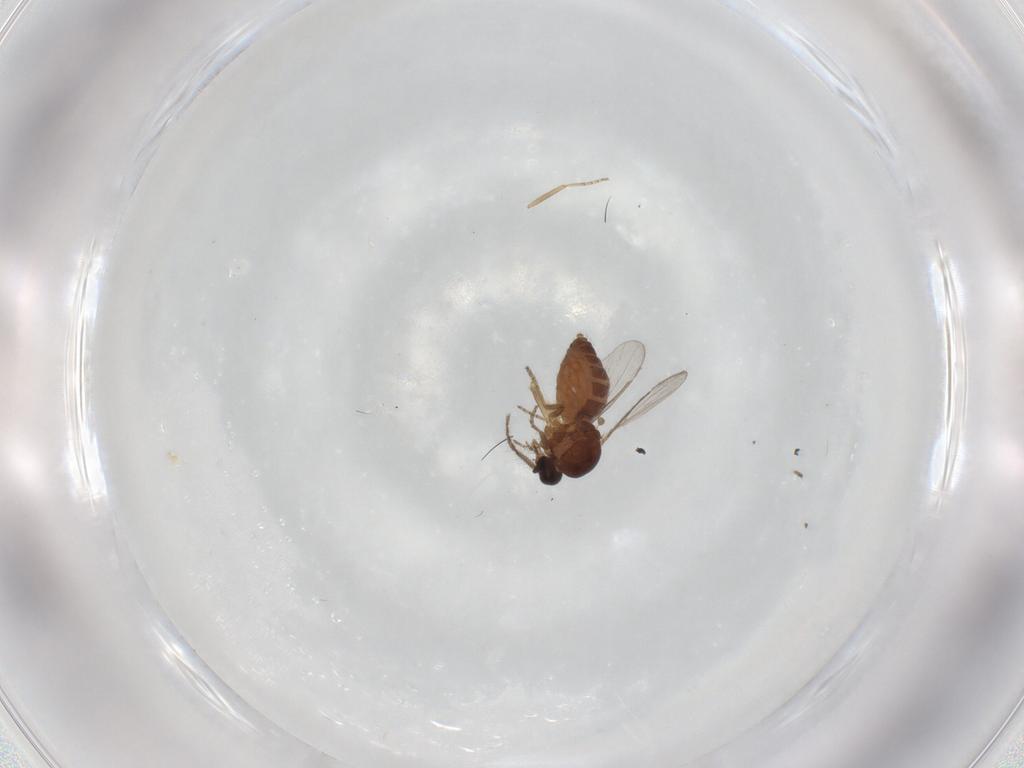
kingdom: Animalia
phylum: Arthropoda
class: Insecta
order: Diptera
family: Ceratopogonidae
